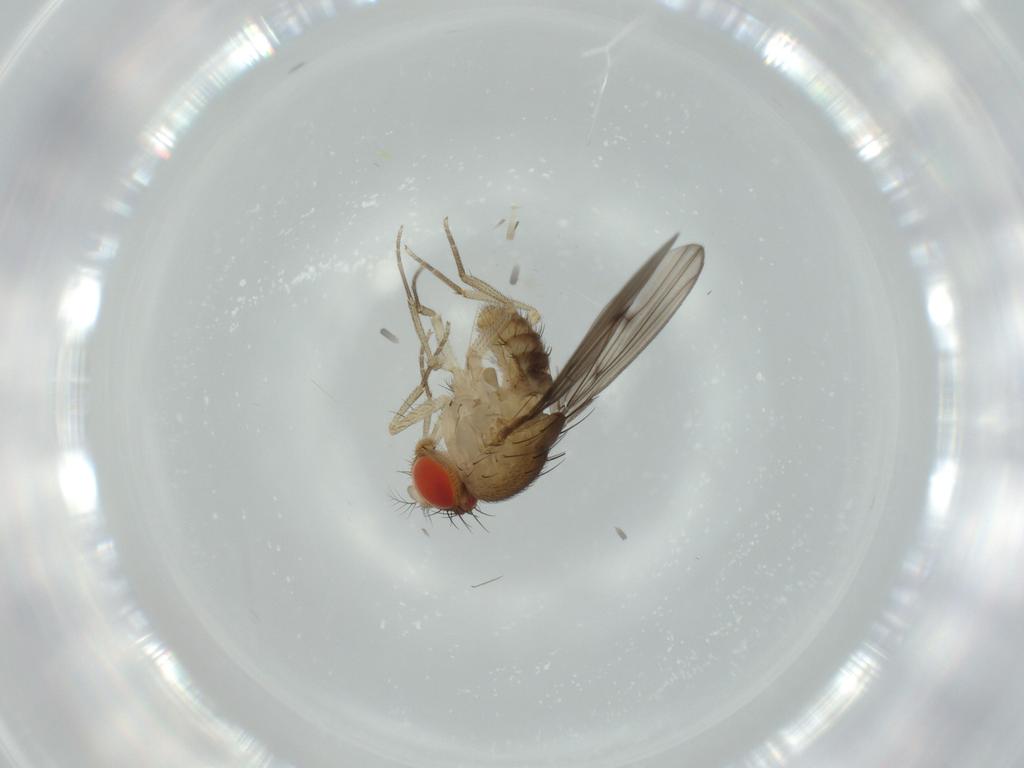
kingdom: Animalia
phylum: Arthropoda
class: Insecta
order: Diptera
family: Drosophilidae
